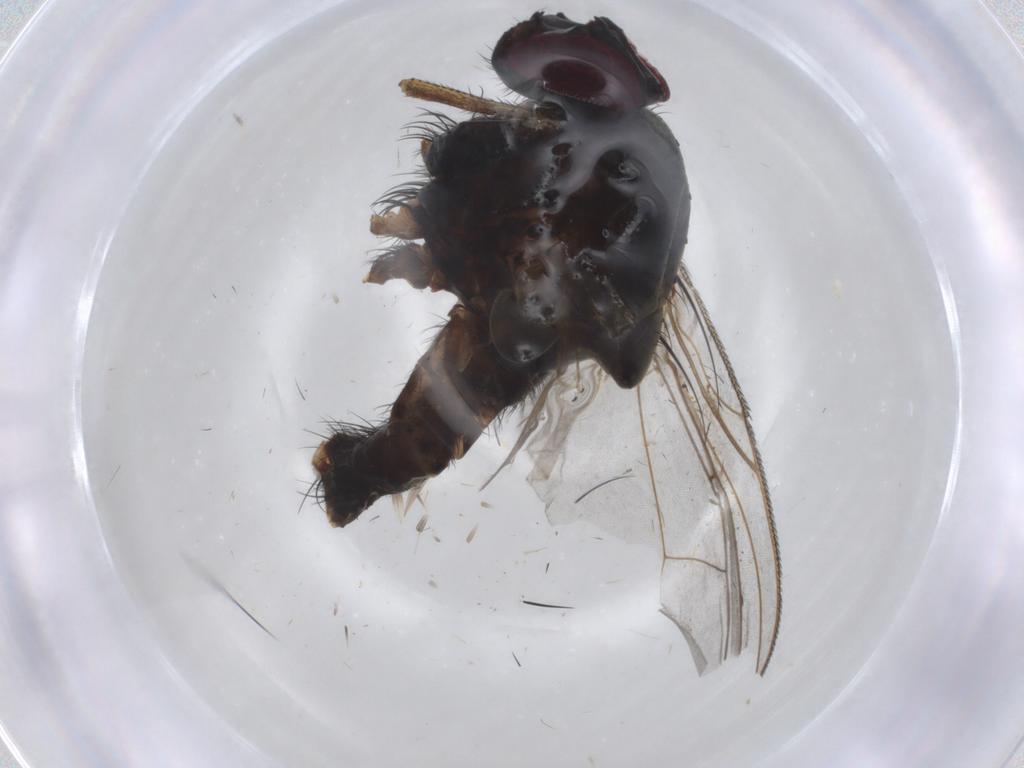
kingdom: Animalia
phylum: Arthropoda
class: Insecta
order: Diptera
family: Muscidae
